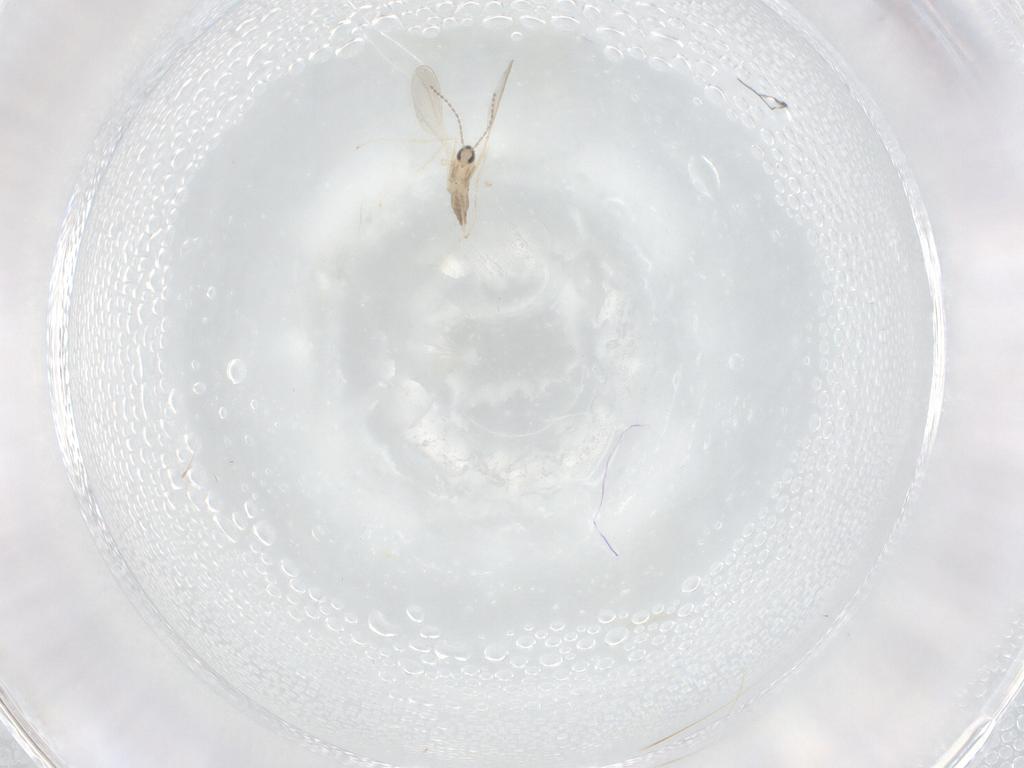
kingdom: Animalia
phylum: Arthropoda
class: Insecta
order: Diptera
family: Cecidomyiidae
